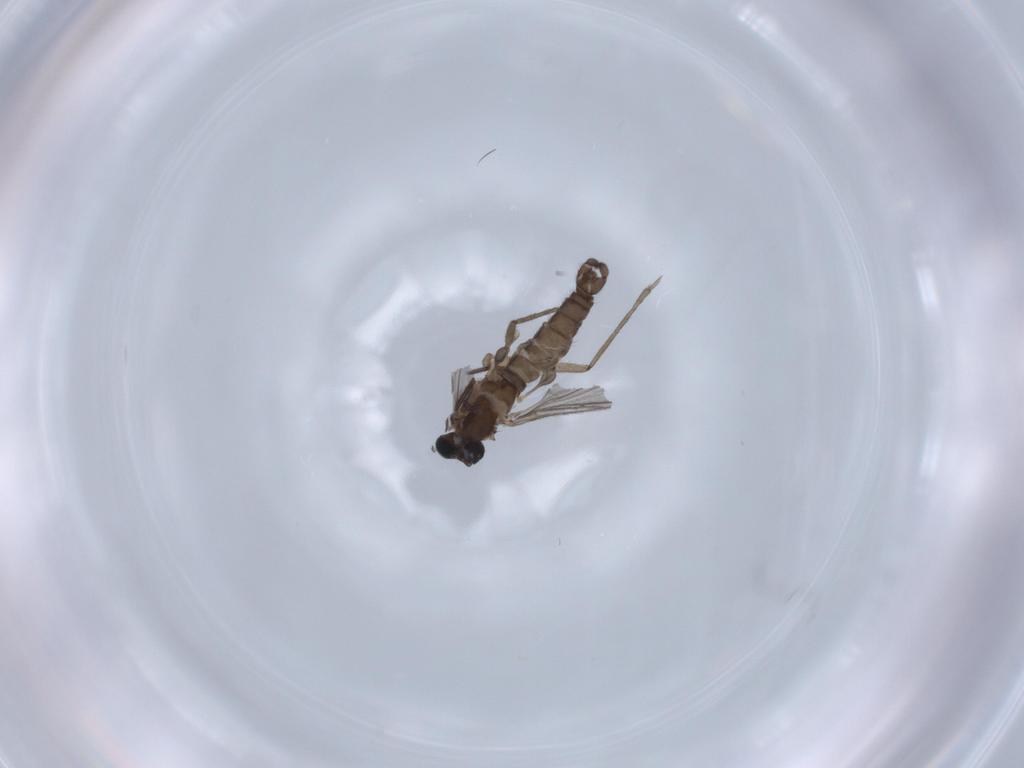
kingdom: Animalia
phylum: Arthropoda
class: Insecta
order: Diptera
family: Sciaridae
